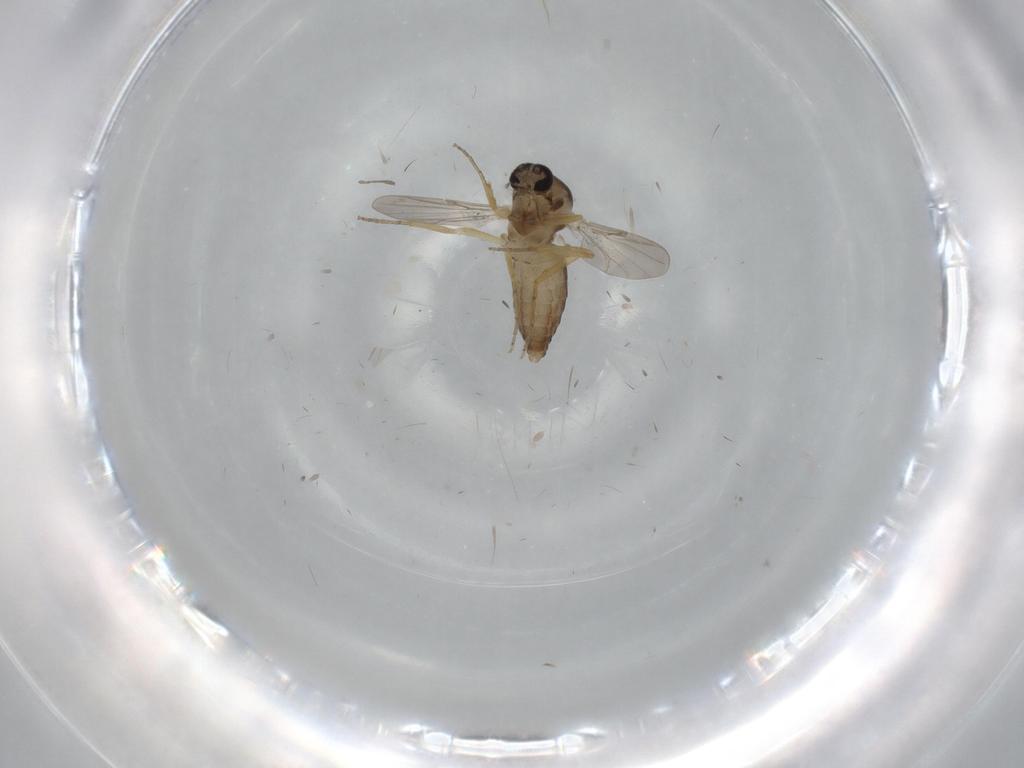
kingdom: Animalia
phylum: Arthropoda
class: Insecta
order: Diptera
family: Ceratopogonidae
